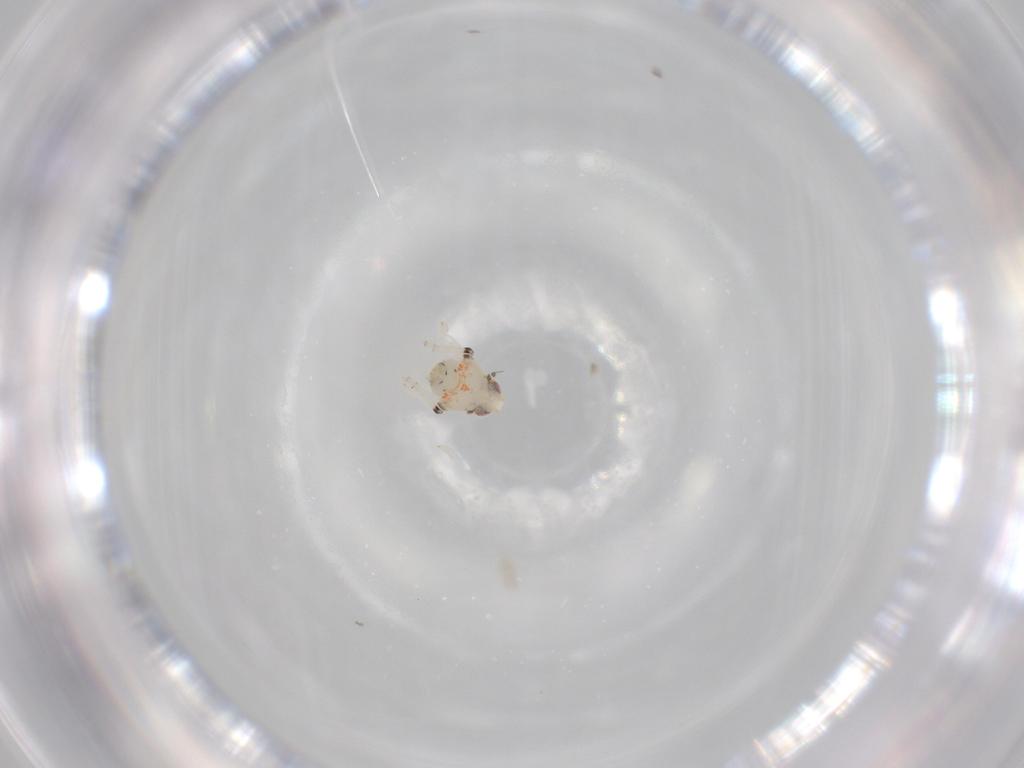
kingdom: Animalia
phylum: Arthropoda
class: Insecta
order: Hemiptera
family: Nogodinidae
